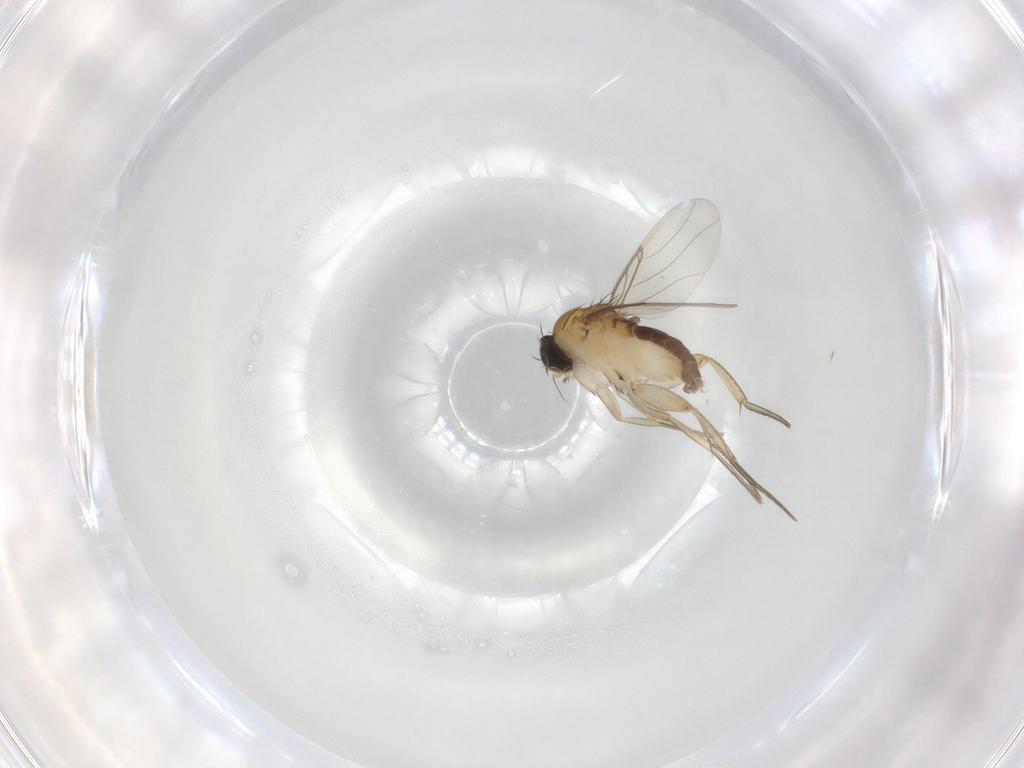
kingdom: Animalia
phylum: Arthropoda
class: Insecta
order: Diptera
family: Phoridae
